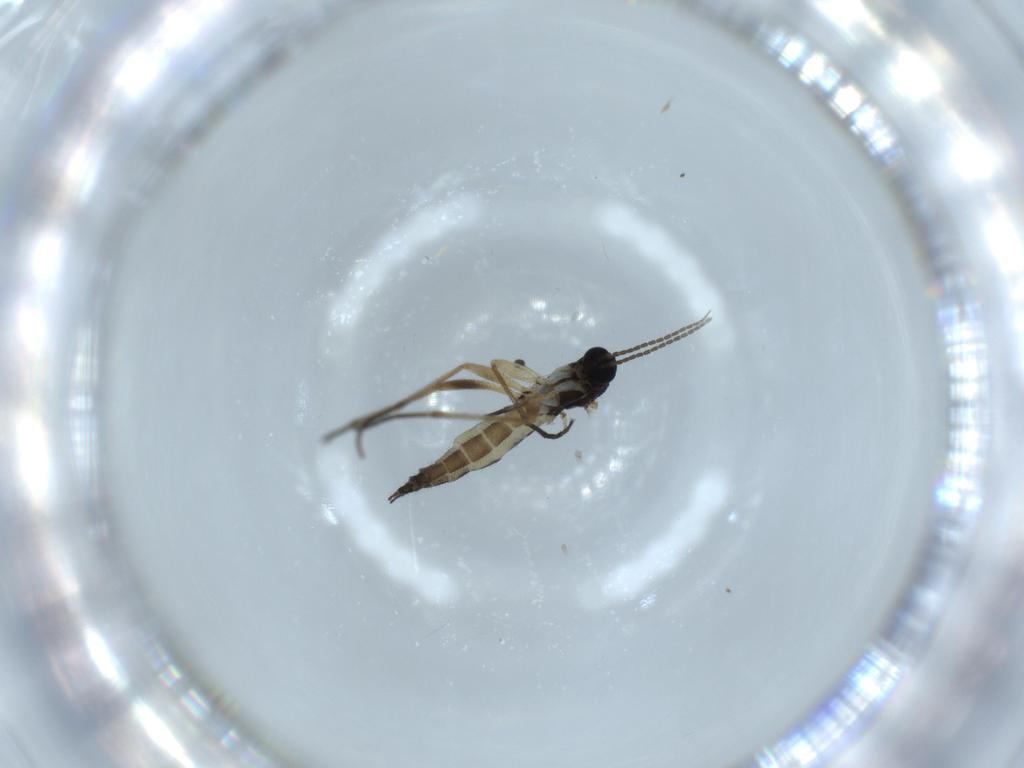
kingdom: Animalia
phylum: Arthropoda
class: Insecta
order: Diptera
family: Sciaridae
